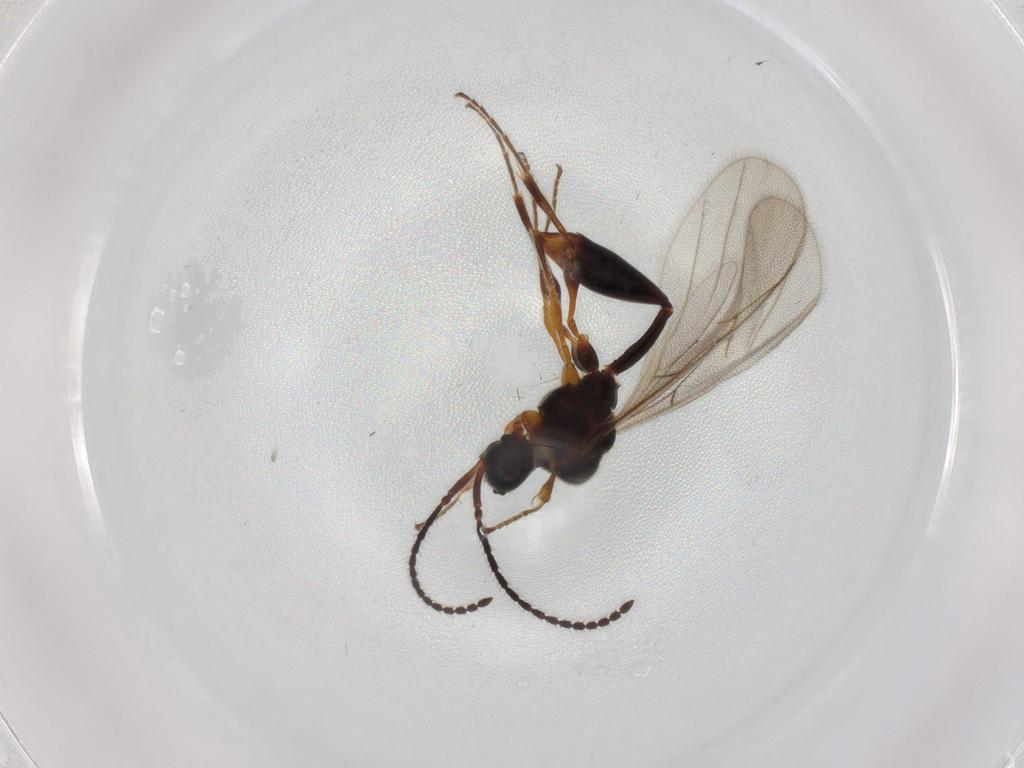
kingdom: Animalia
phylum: Arthropoda
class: Insecta
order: Hymenoptera
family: Diapriidae
